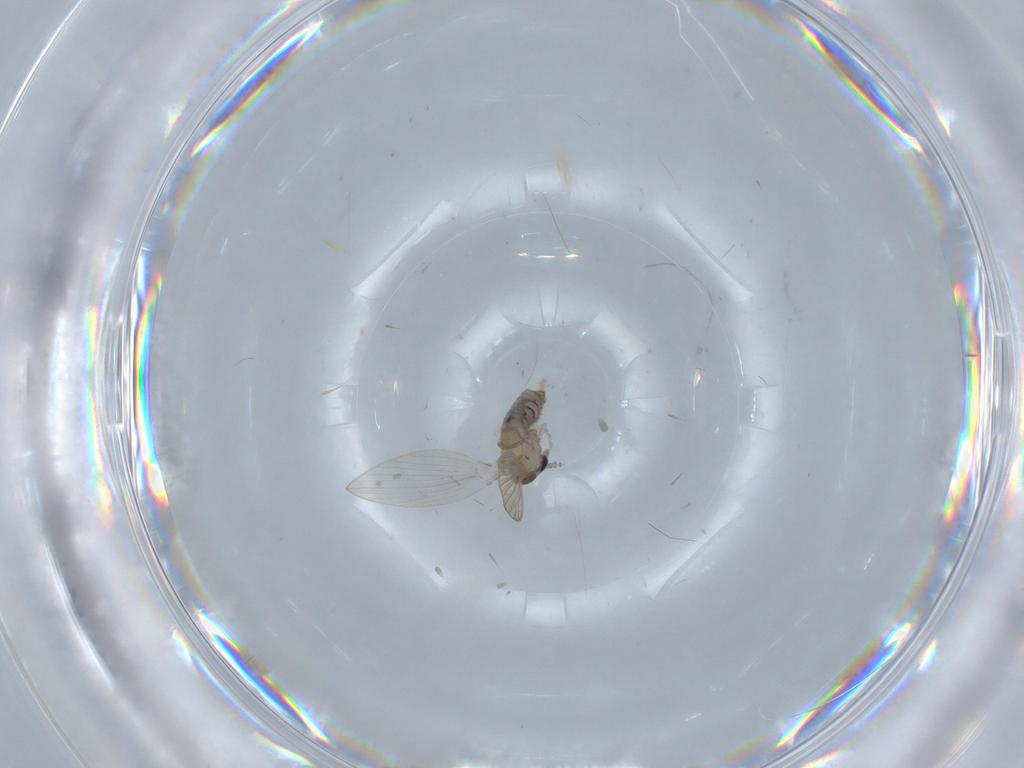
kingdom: Animalia
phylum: Arthropoda
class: Insecta
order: Diptera
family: Psychodidae
